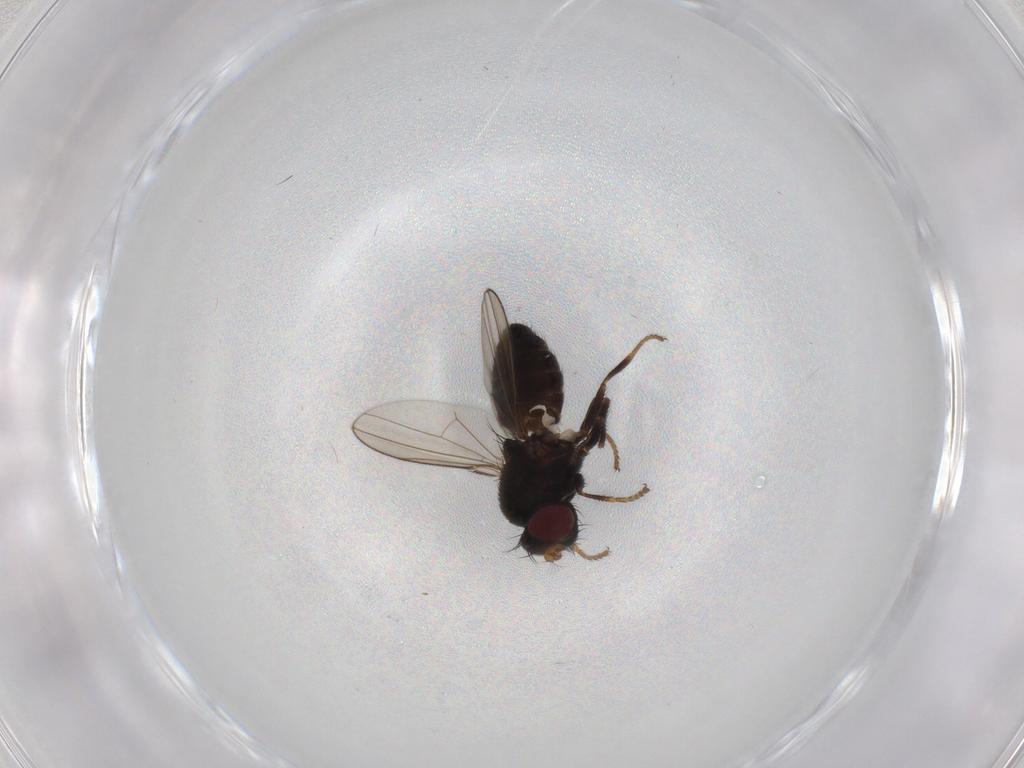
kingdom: Animalia
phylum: Arthropoda
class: Insecta
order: Diptera
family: Ephydridae
